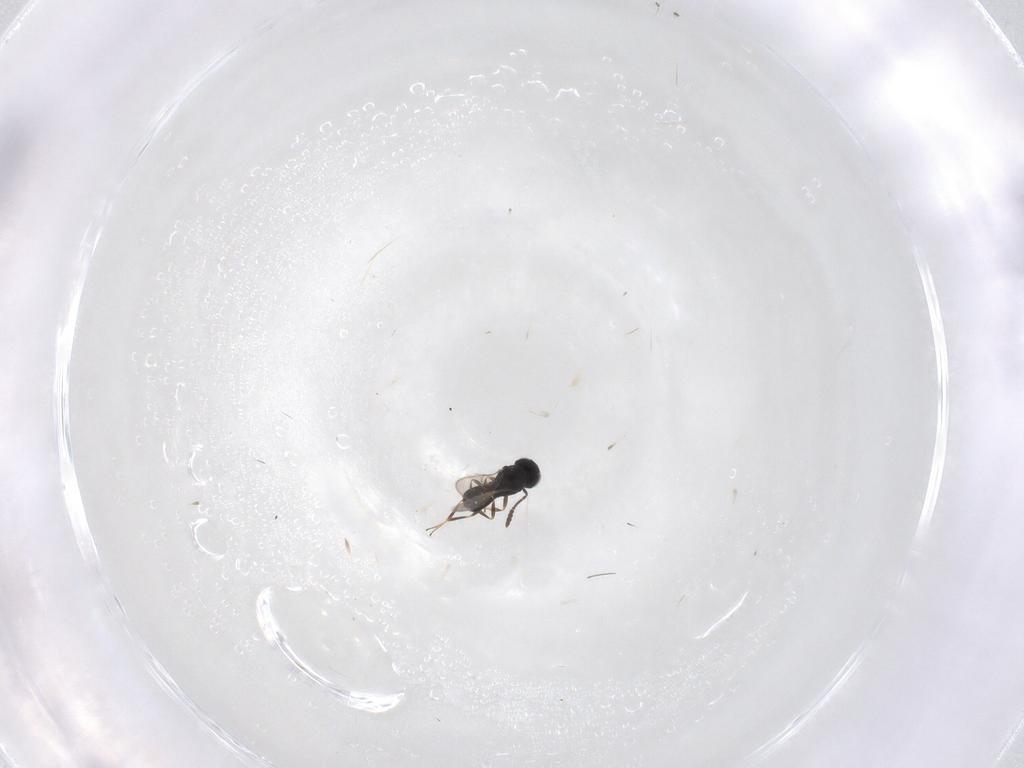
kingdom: Animalia
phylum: Arthropoda
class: Insecta
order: Hymenoptera
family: Scelionidae
